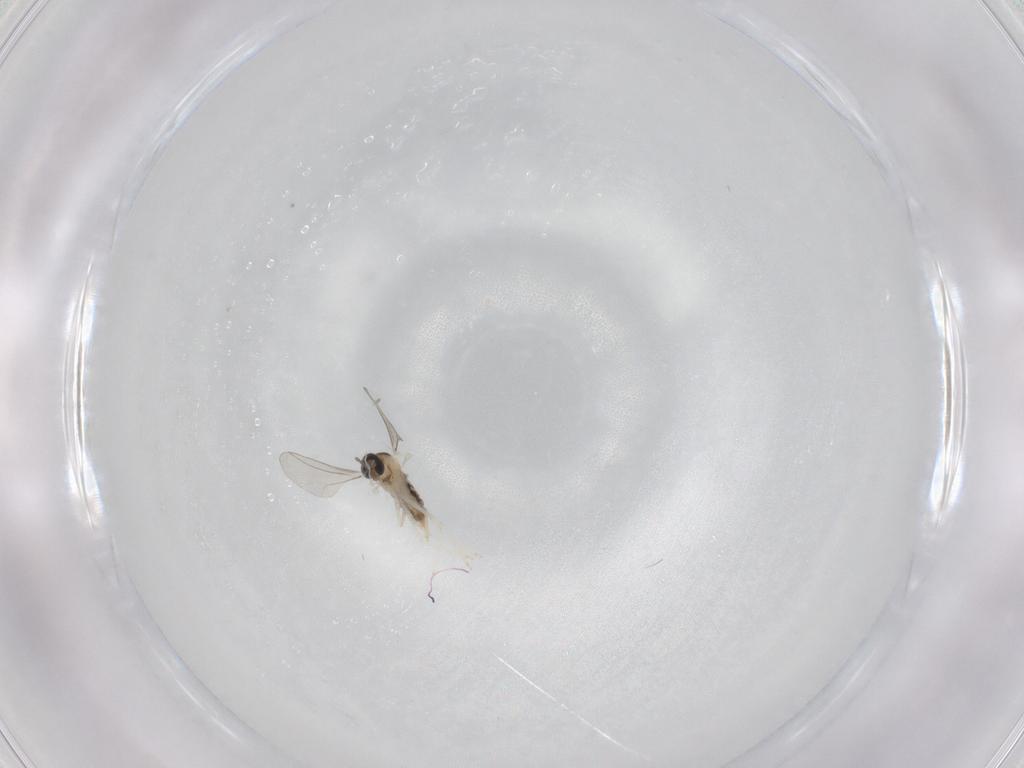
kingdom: Animalia
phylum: Arthropoda
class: Insecta
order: Diptera
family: Cecidomyiidae
